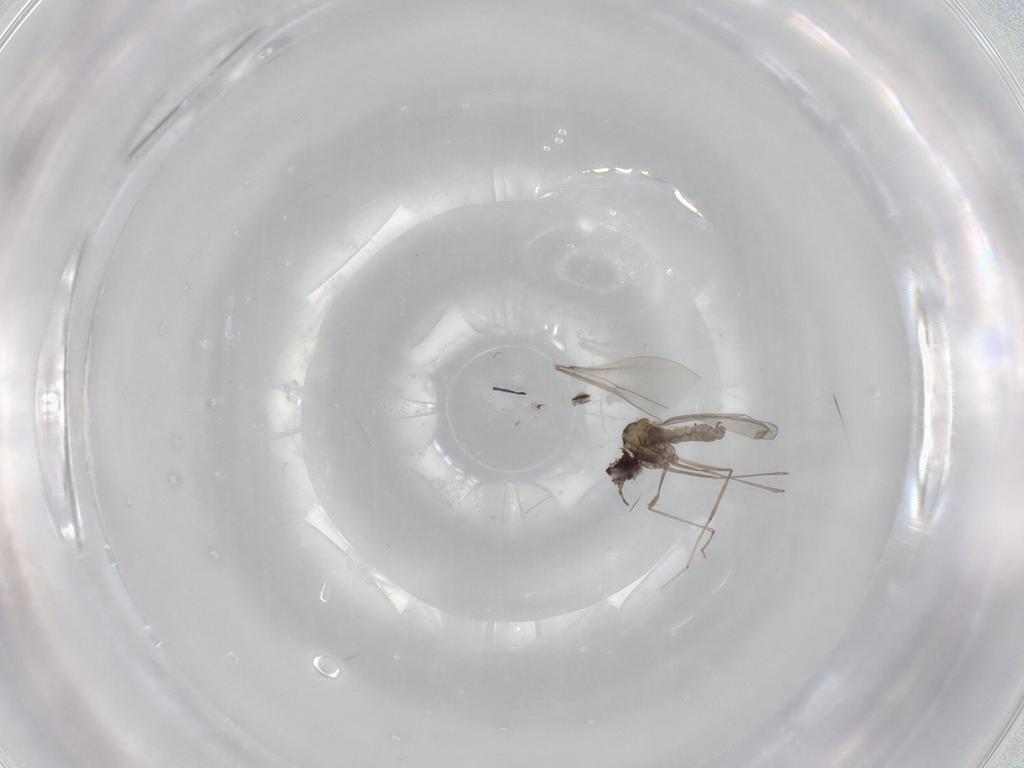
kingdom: Animalia
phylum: Arthropoda
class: Insecta
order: Diptera
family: Phoridae
